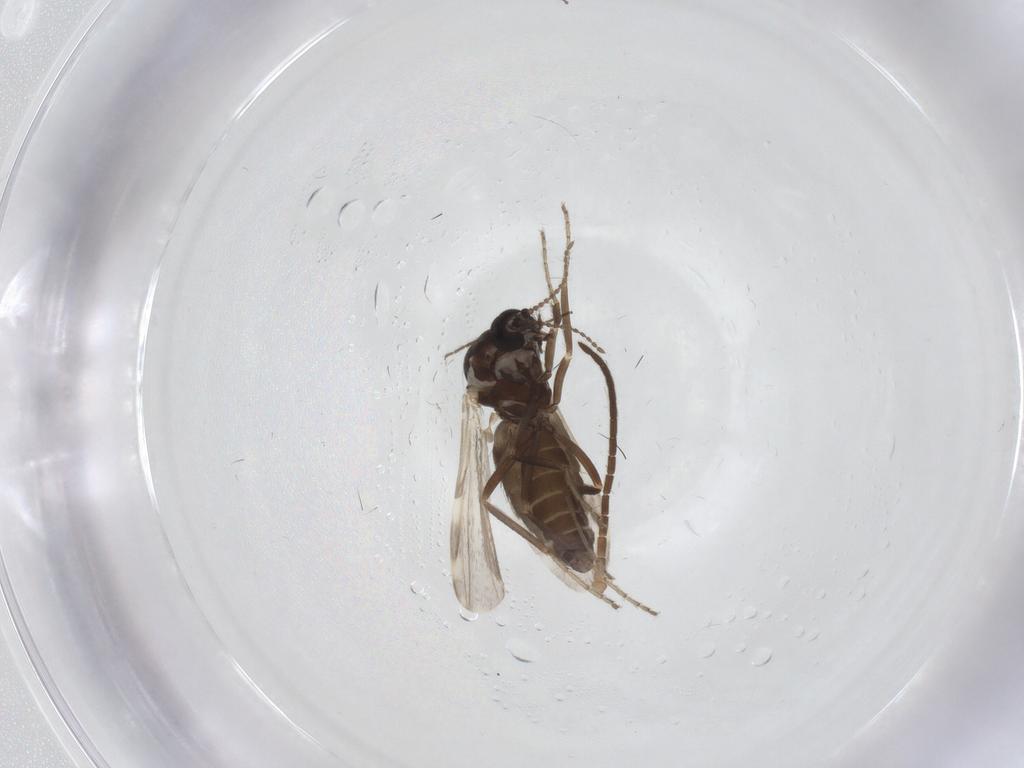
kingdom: Animalia
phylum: Arthropoda
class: Insecta
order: Diptera
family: Ceratopogonidae
